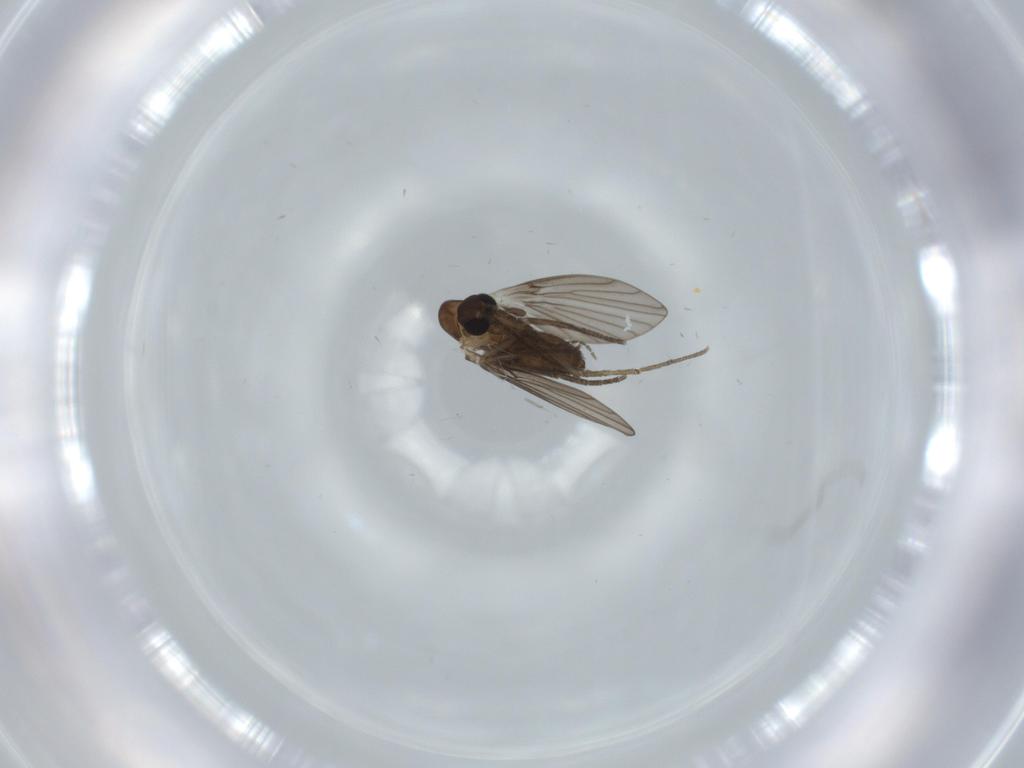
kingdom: Animalia
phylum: Arthropoda
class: Insecta
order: Diptera
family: Psychodidae
